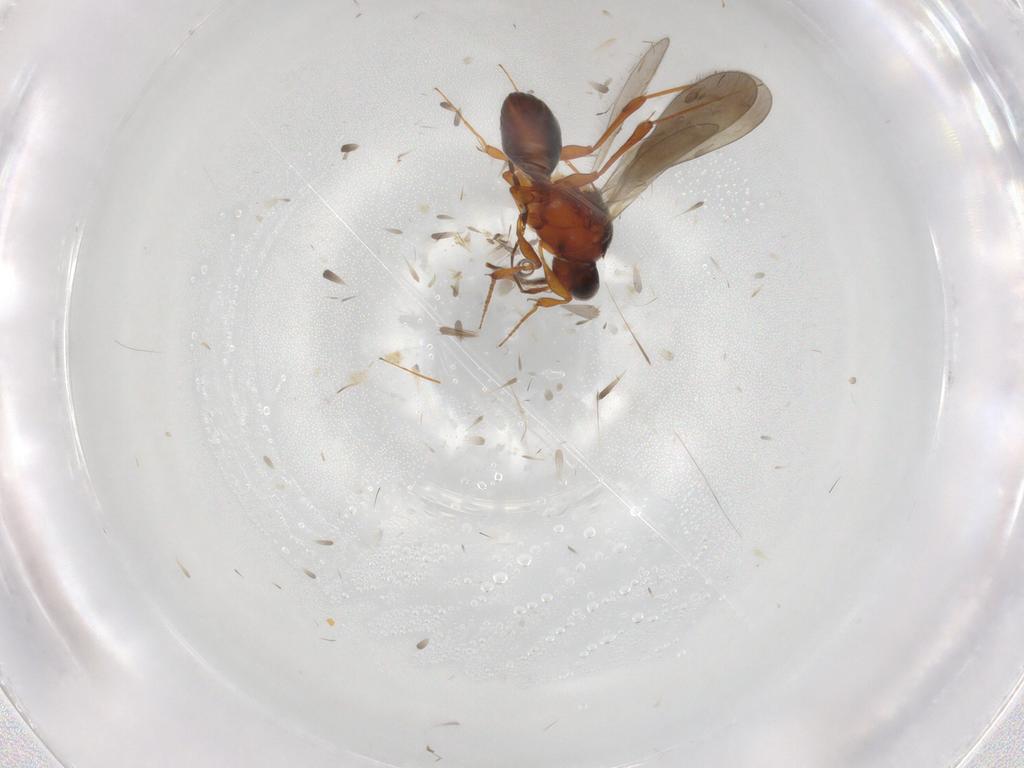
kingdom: Animalia
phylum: Arthropoda
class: Insecta
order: Hymenoptera
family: Platygastridae
